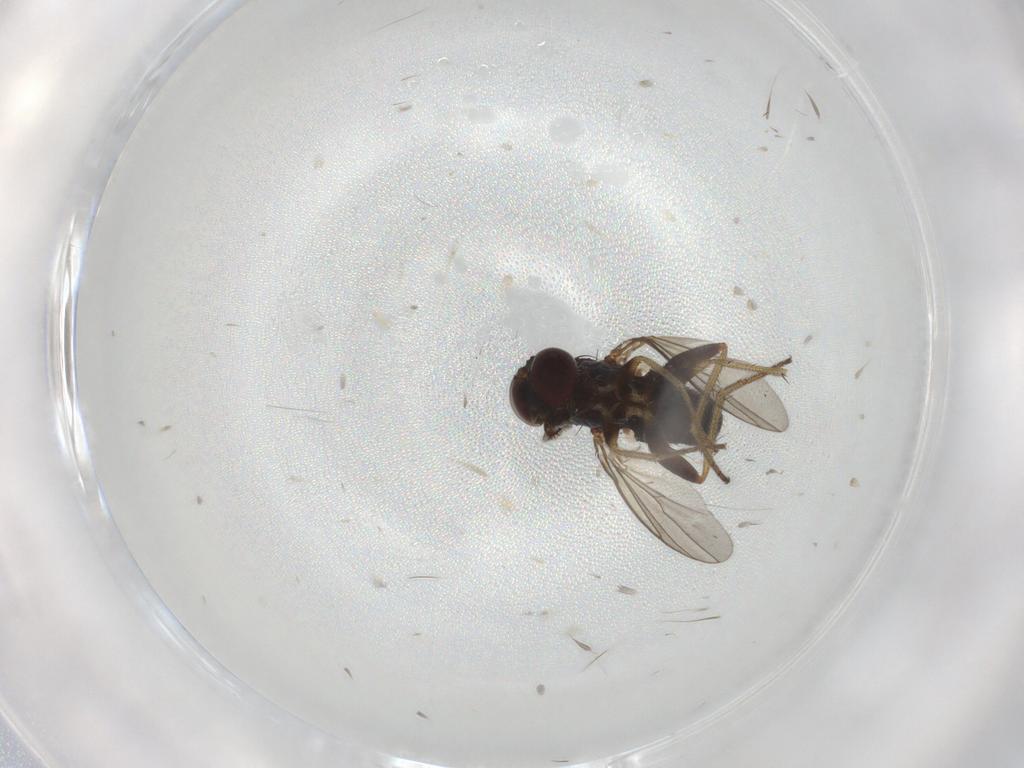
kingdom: Animalia
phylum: Arthropoda
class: Insecta
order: Diptera
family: Dolichopodidae
